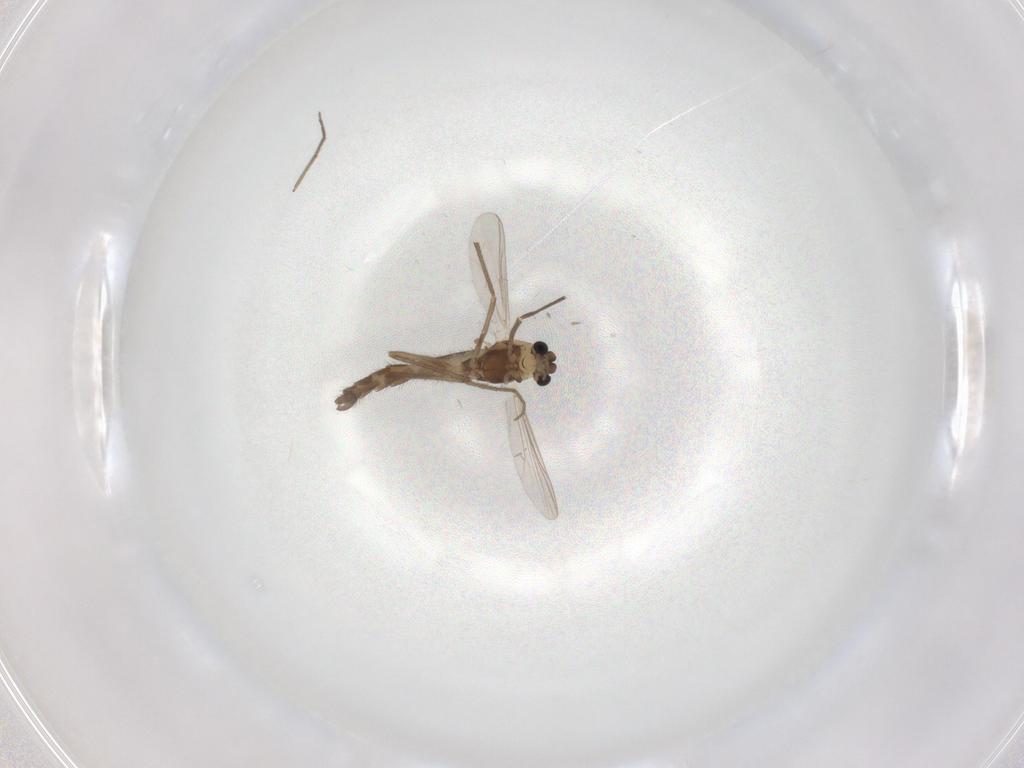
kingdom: Animalia
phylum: Arthropoda
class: Insecta
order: Diptera
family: Chironomidae
